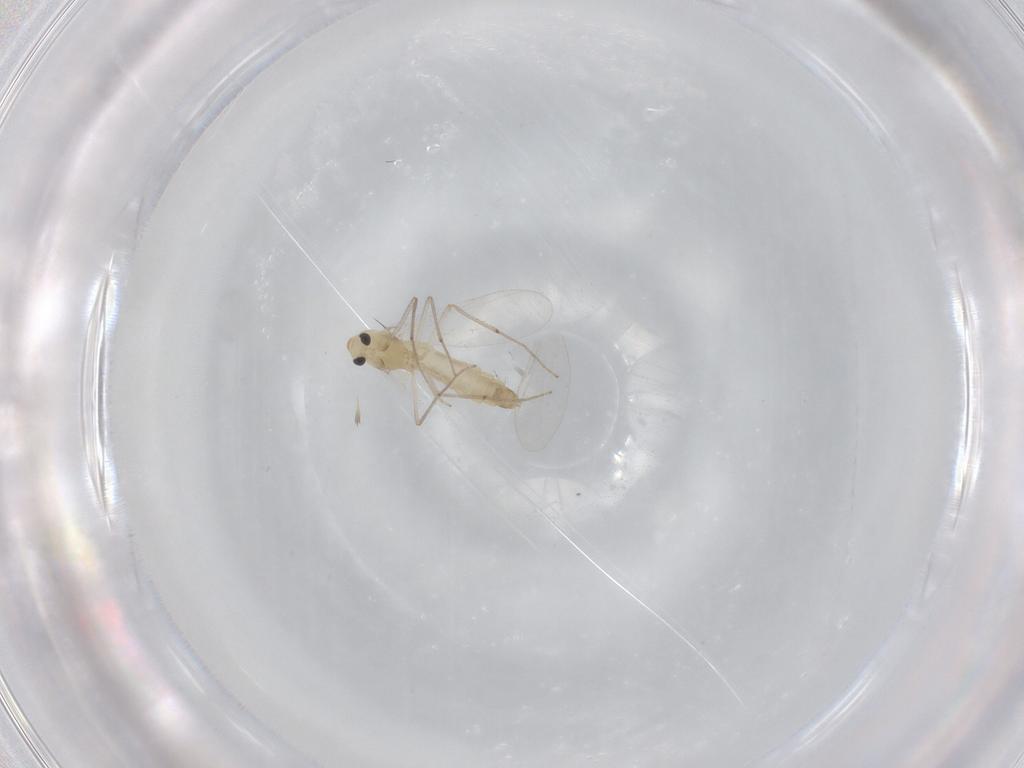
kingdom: Animalia
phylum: Arthropoda
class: Insecta
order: Diptera
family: Chironomidae
